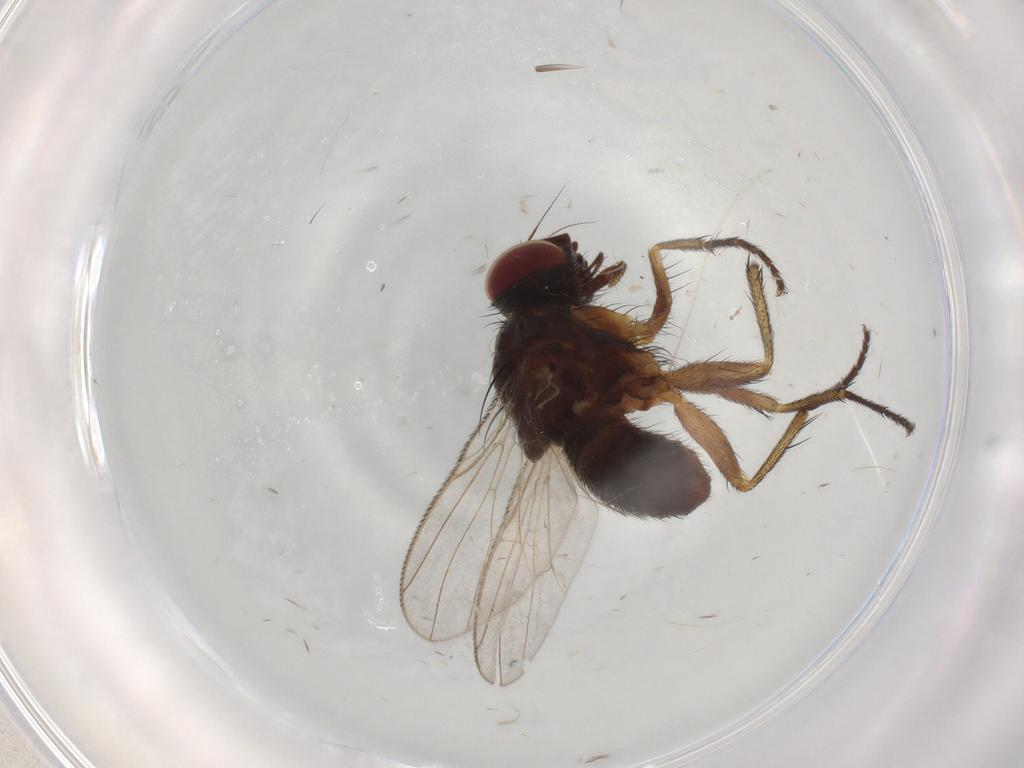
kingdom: Animalia
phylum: Arthropoda
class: Insecta
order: Diptera
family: Muscidae
